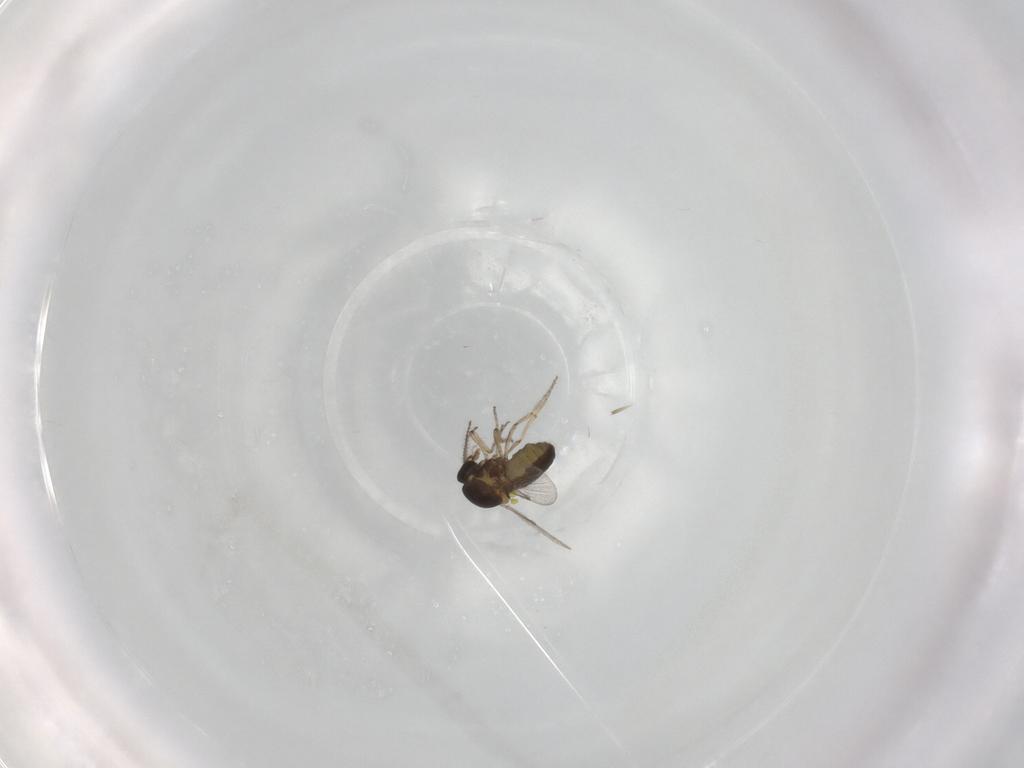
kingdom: Animalia
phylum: Arthropoda
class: Insecta
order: Diptera
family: Ceratopogonidae
